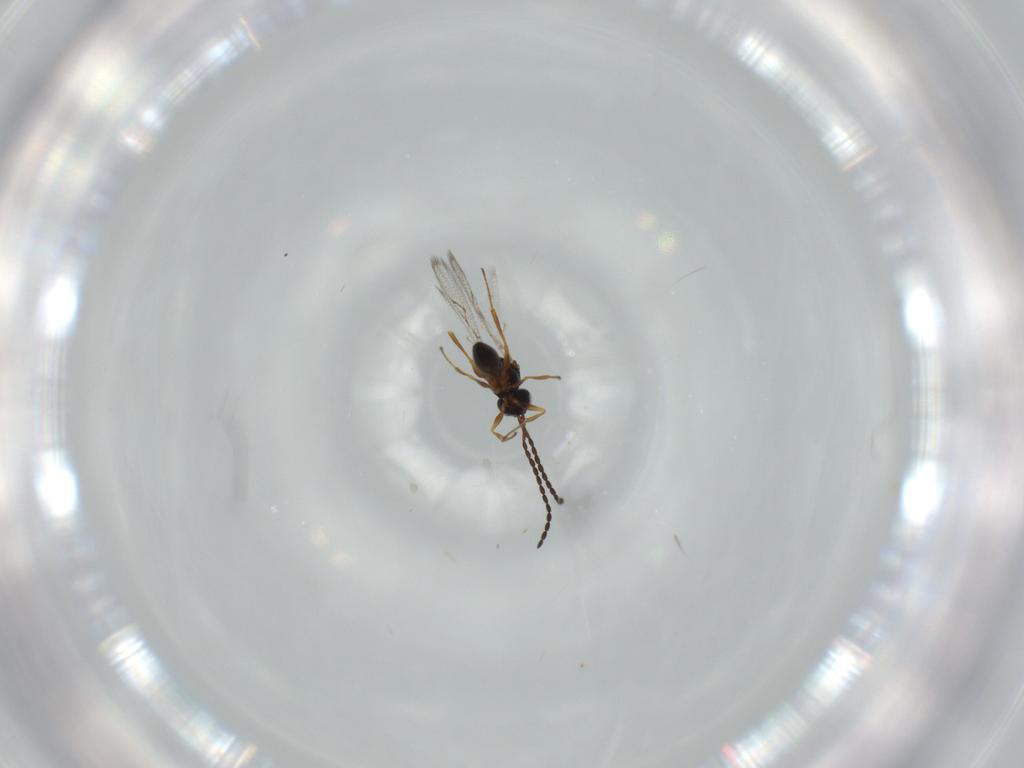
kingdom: Animalia
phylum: Arthropoda
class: Insecta
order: Hymenoptera
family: Figitidae
